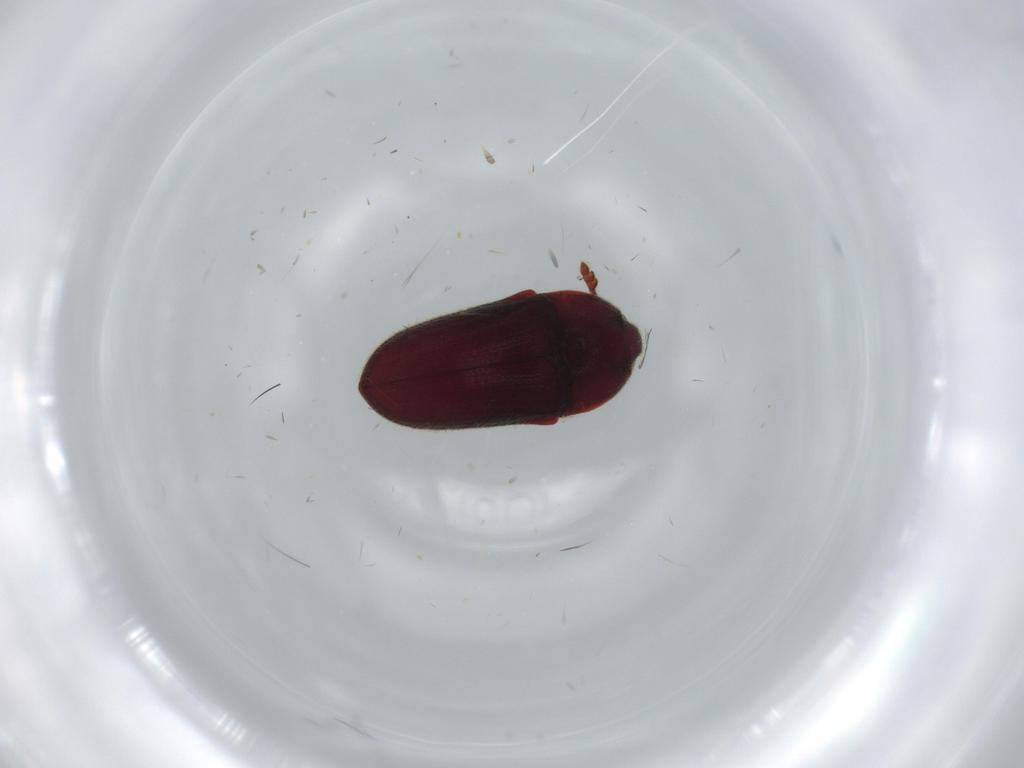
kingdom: Animalia
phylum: Arthropoda
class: Insecta
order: Coleoptera
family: Throscidae
